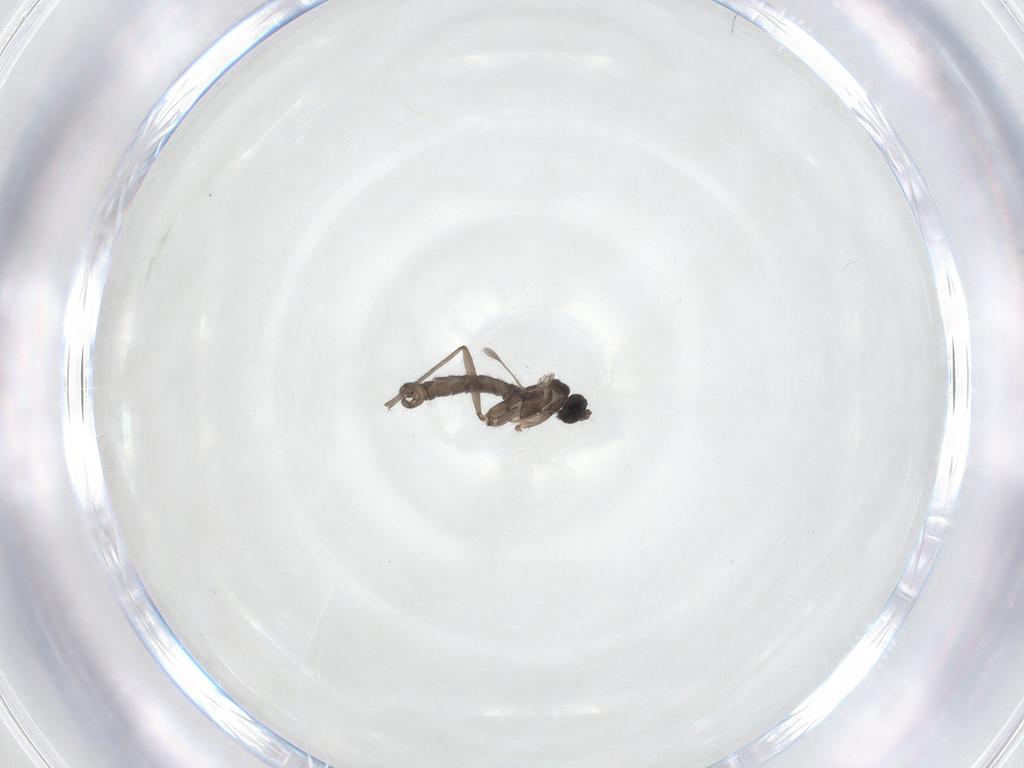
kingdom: Animalia
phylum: Arthropoda
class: Insecta
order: Diptera
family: Sciaridae
